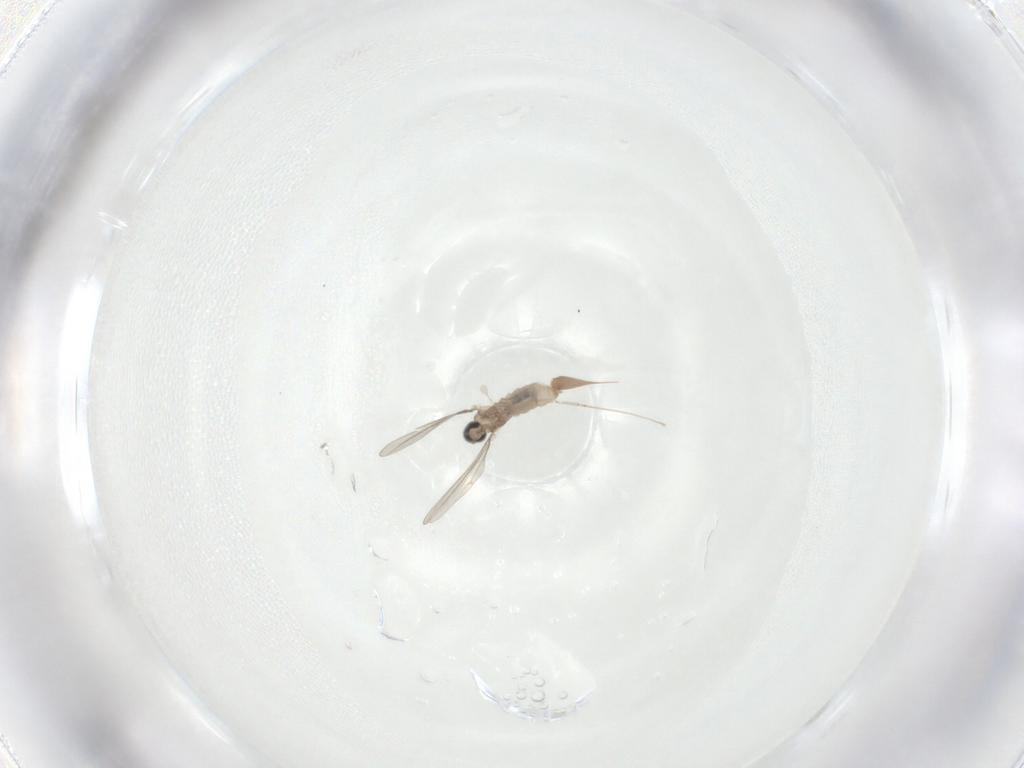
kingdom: Animalia
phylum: Arthropoda
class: Insecta
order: Diptera
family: Cecidomyiidae
